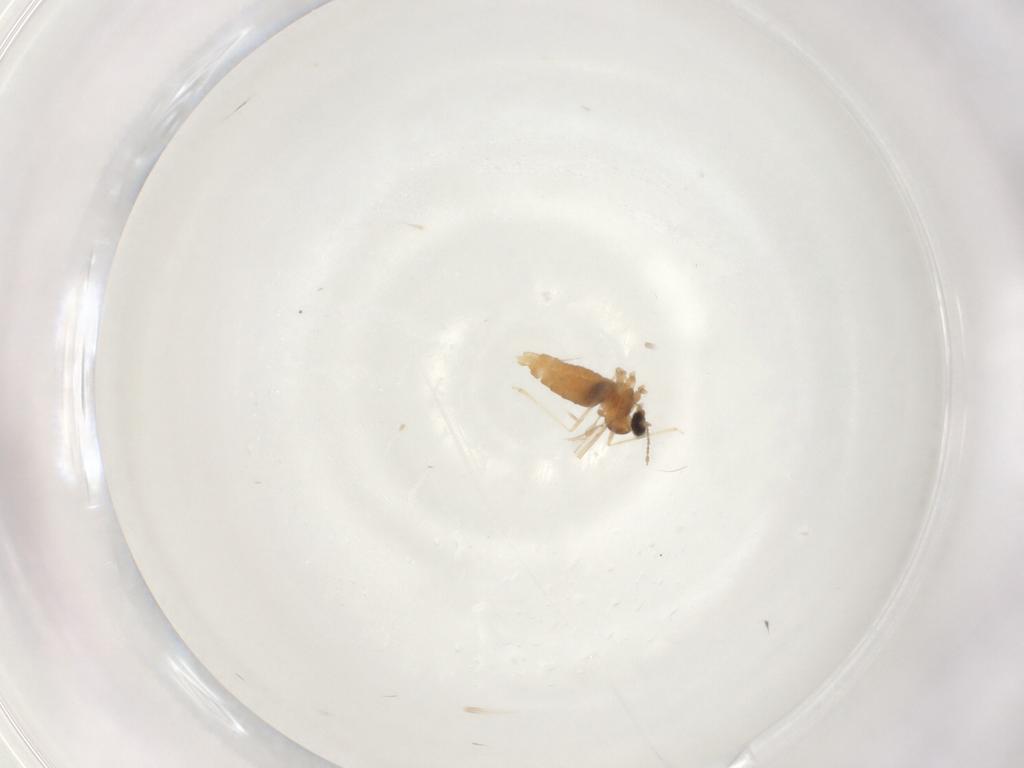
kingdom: Animalia
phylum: Arthropoda
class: Insecta
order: Diptera
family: Cecidomyiidae
